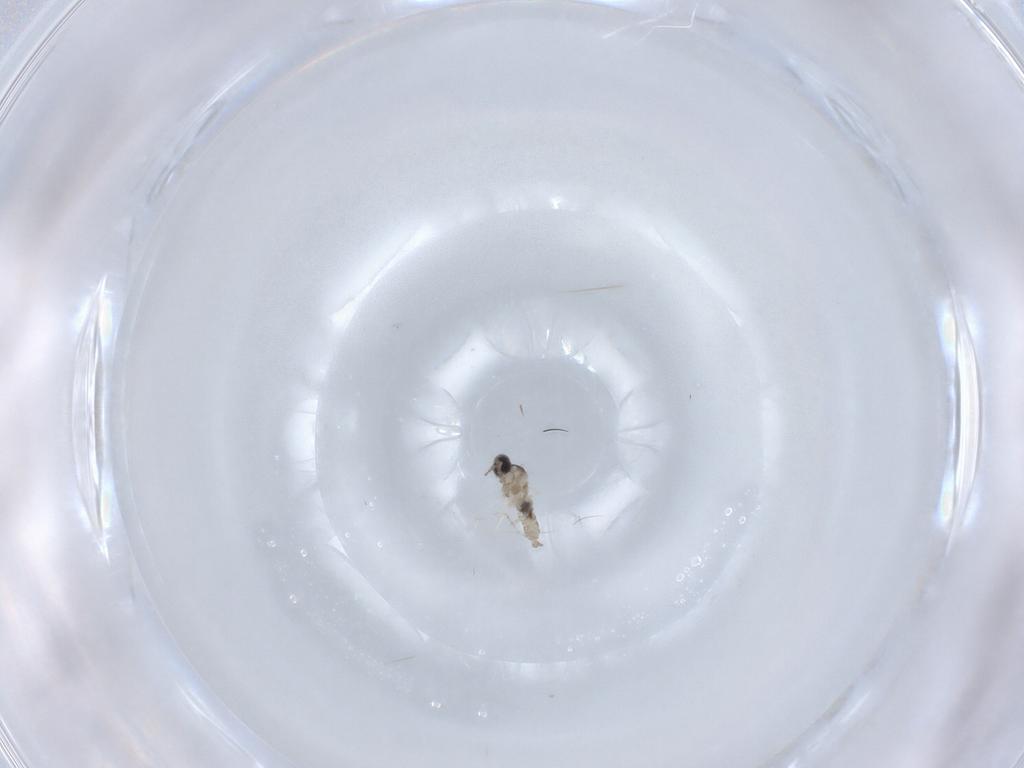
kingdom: Animalia
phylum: Arthropoda
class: Insecta
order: Diptera
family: Cecidomyiidae
